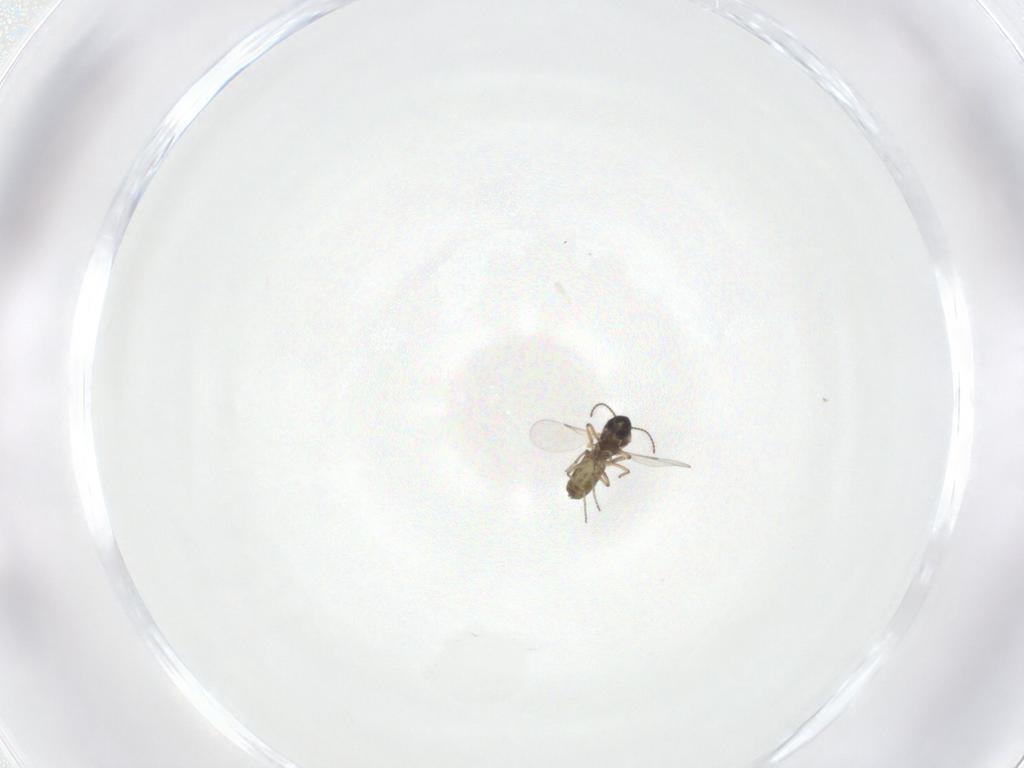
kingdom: Animalia
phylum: Arthropoda
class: Insecta
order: Diptera
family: Ceratopogonidae
